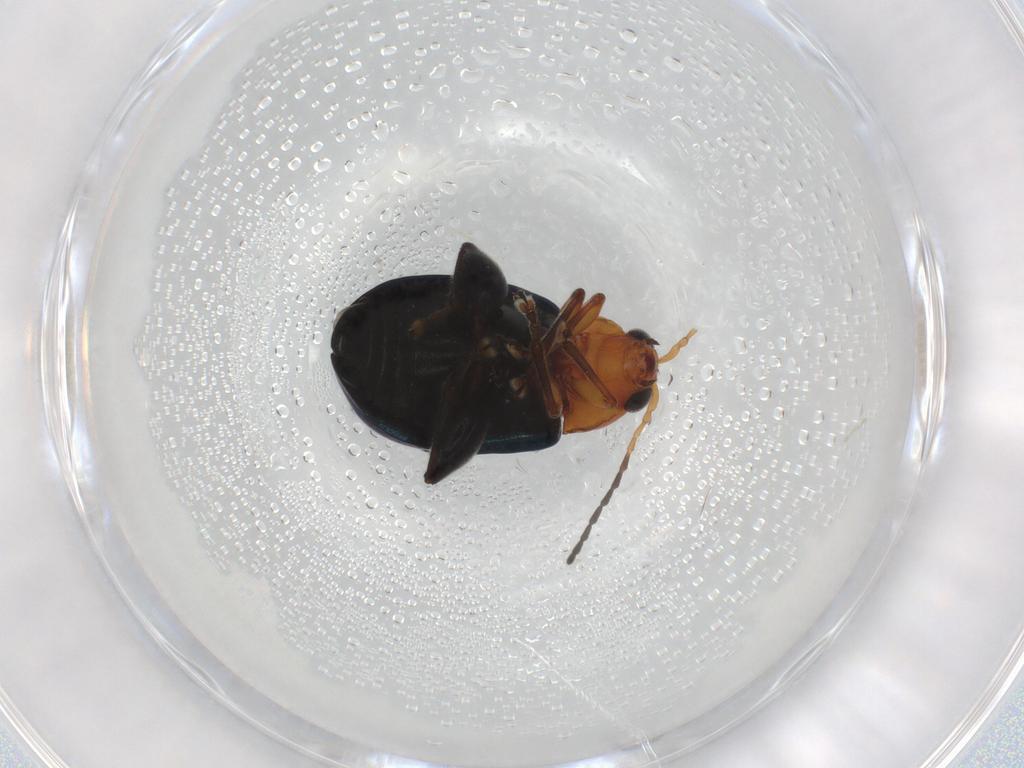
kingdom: Animalia
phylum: Arthropoda
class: Insecta
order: Coleoptera
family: Chrysomelidae
